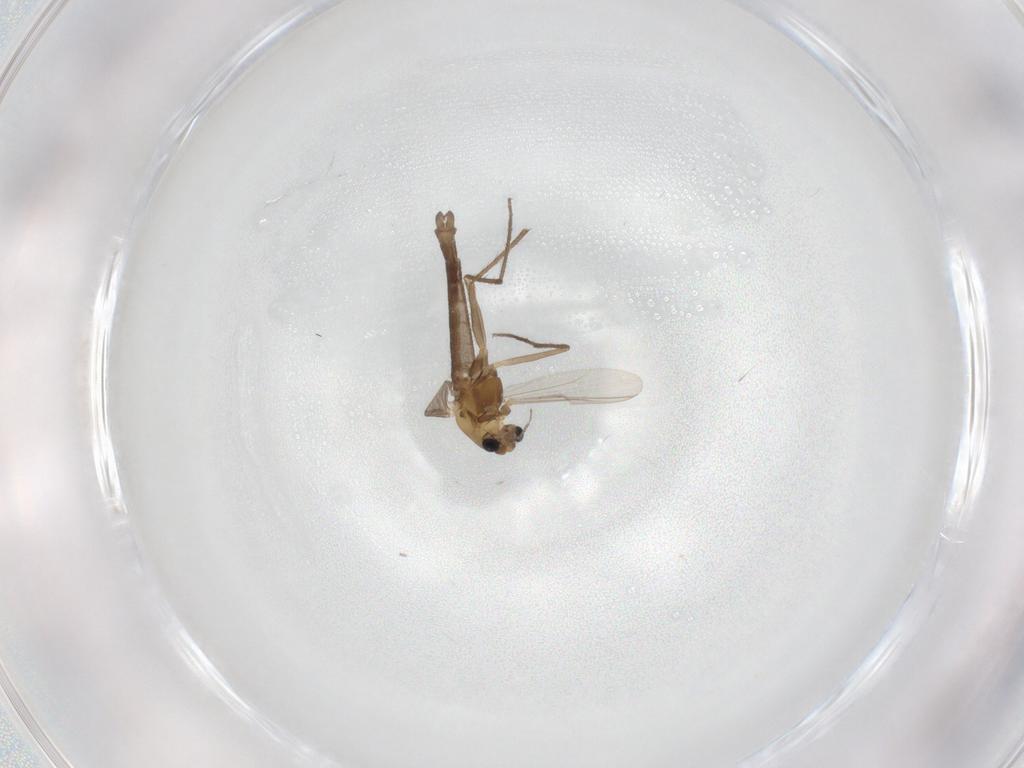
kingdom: Animalia
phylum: Arthropoda
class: Insecta
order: Diptera
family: Chironomidae
